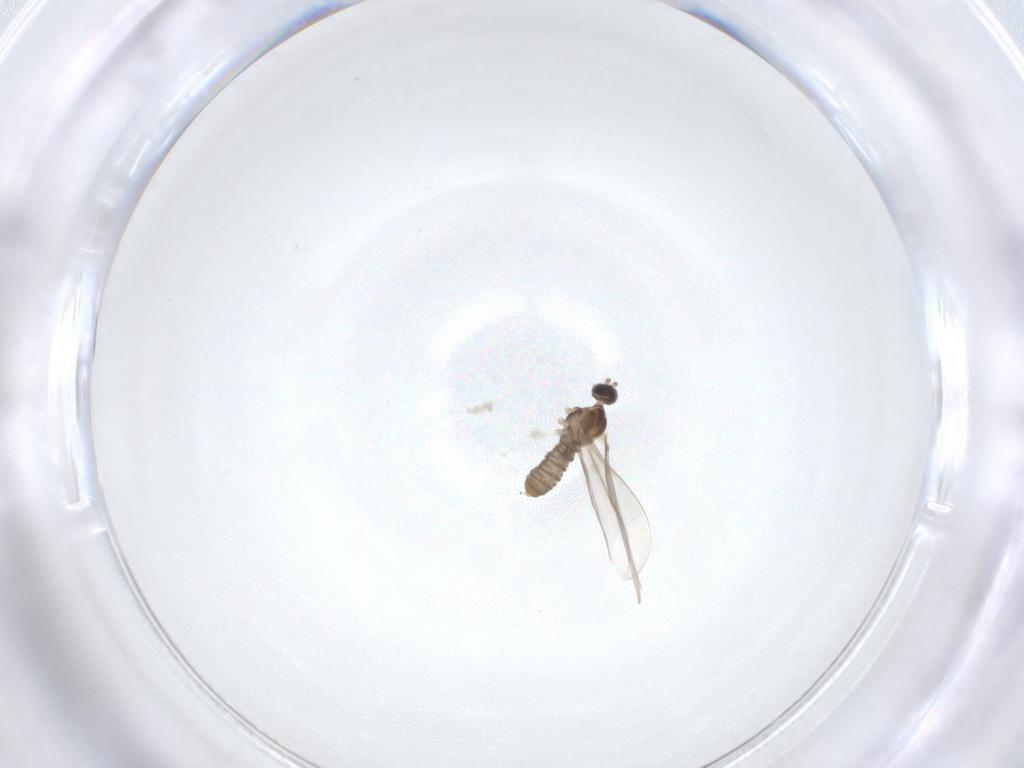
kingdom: Animalia
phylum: Arthropoda
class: Insecta
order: Diptera
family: Cecidomyiidae
